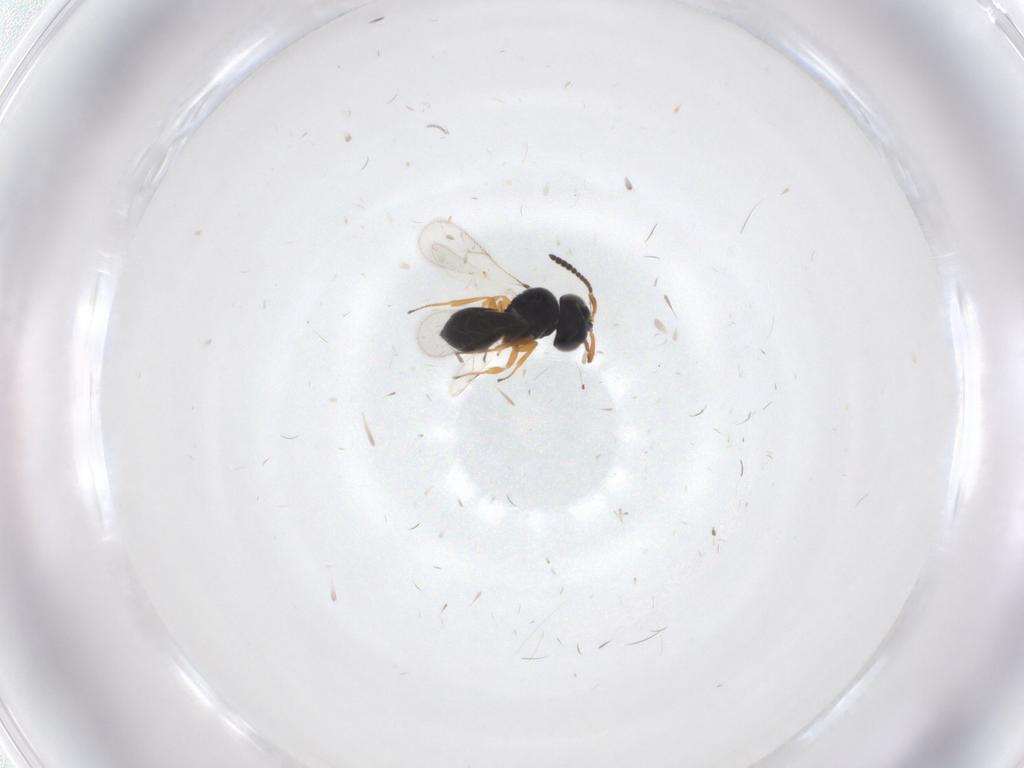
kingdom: Animalia
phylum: Arthropoda
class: Insecta
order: Hymenoptera
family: Scelionidae
